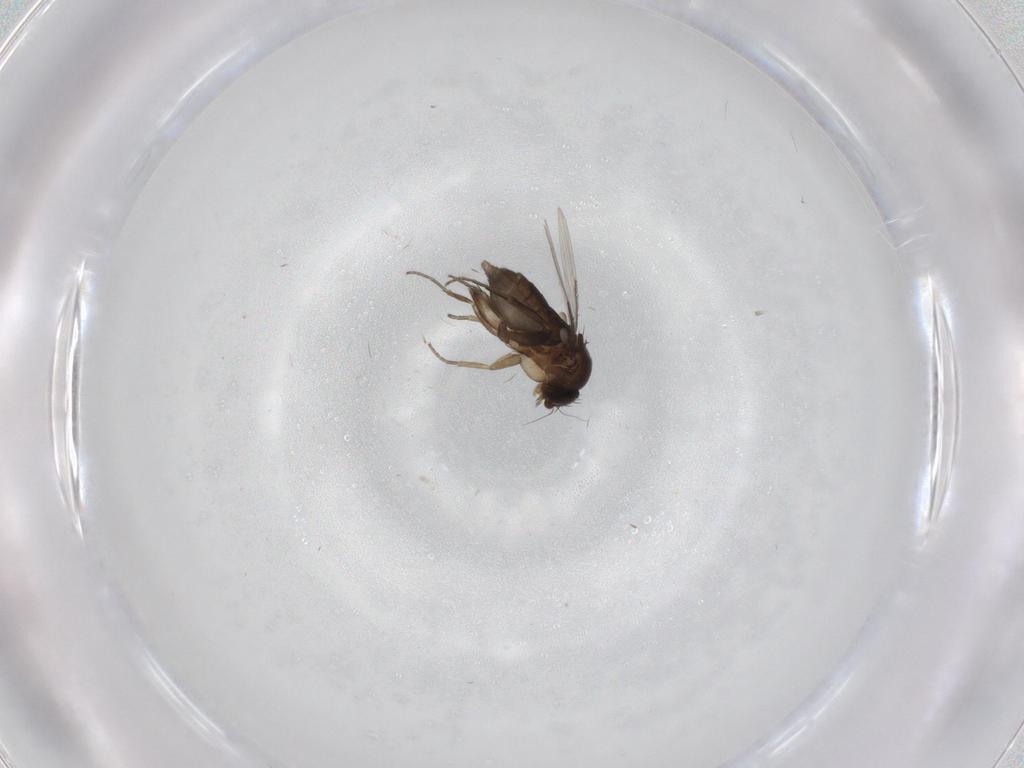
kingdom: Animalia
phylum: Arthropoda
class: Insecta
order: Diptera
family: Phoridae
